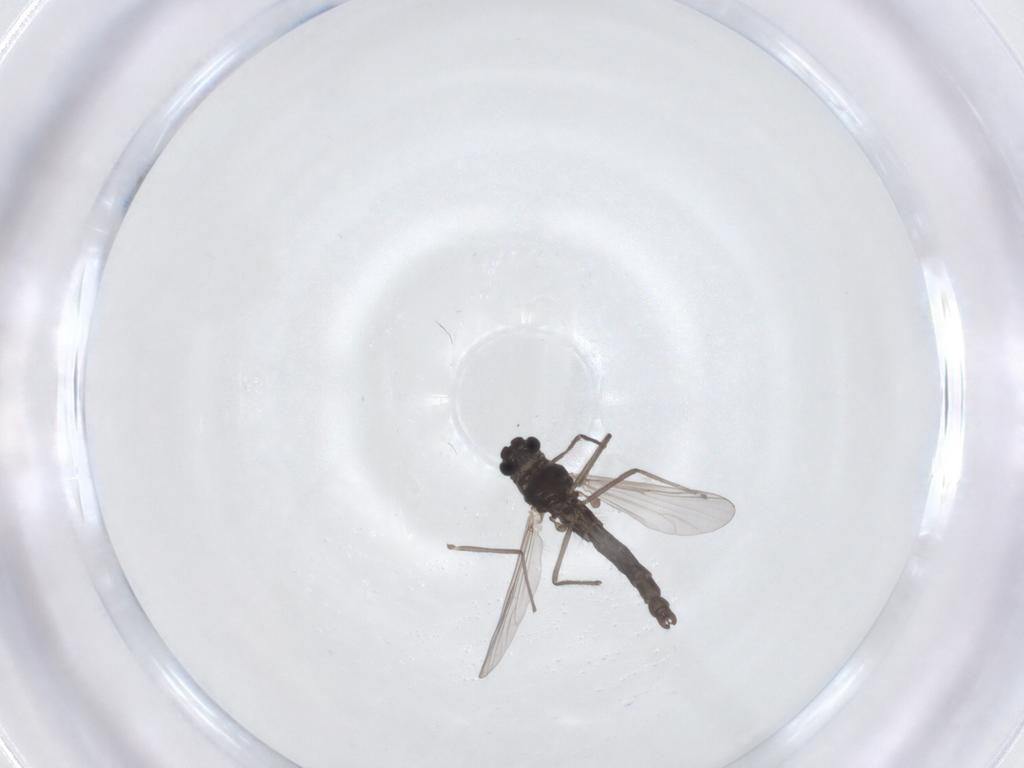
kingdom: Animalia
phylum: Arthropoda
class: Insecta
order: Diptera
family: Chironomidae
